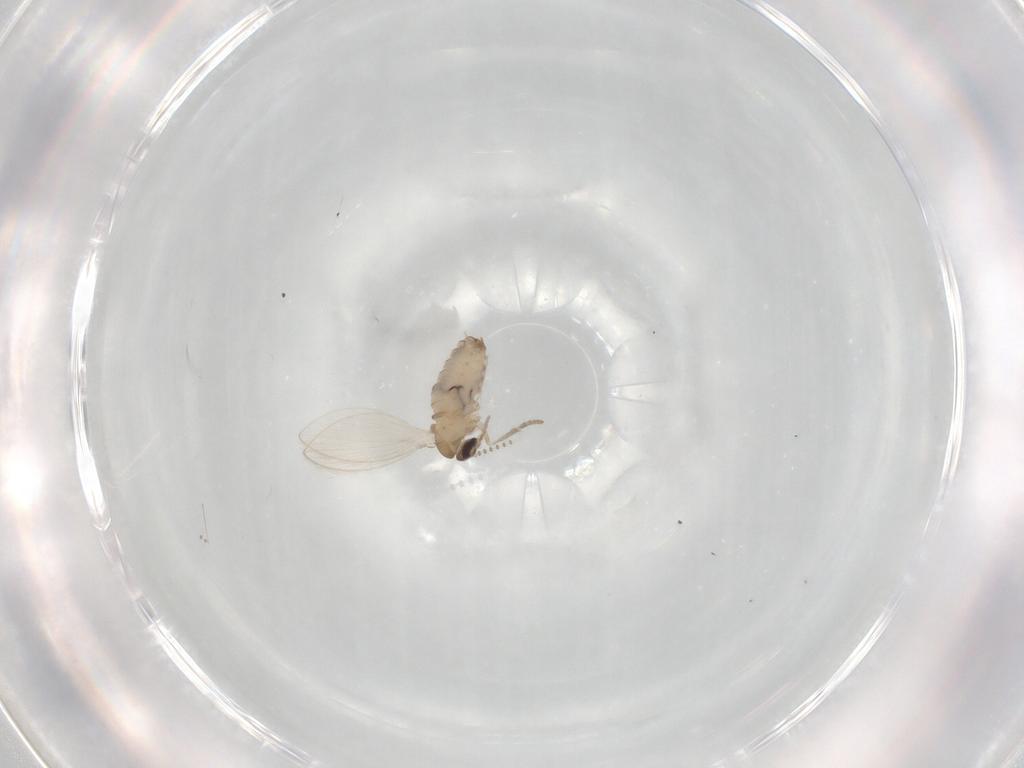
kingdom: Animalia
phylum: Arthropoda
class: Insecta
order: Diptera
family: Psychodidae
